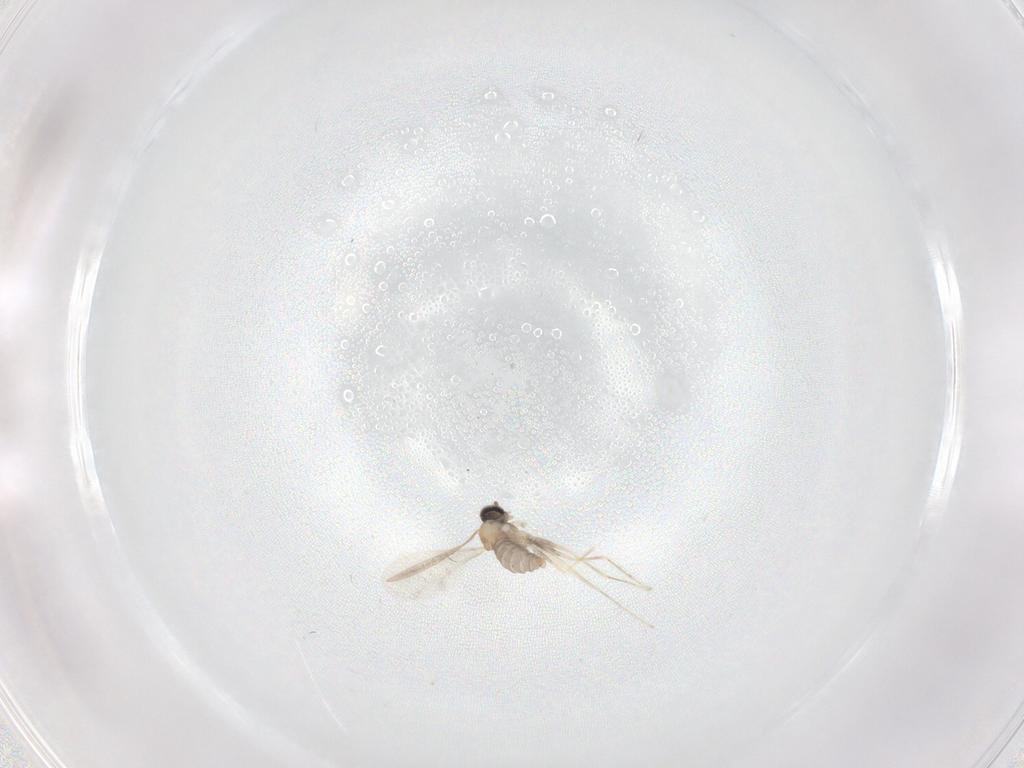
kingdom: Animalia
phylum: Arthropoda
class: Insecta
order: Diptera
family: Cecidomyiidae
